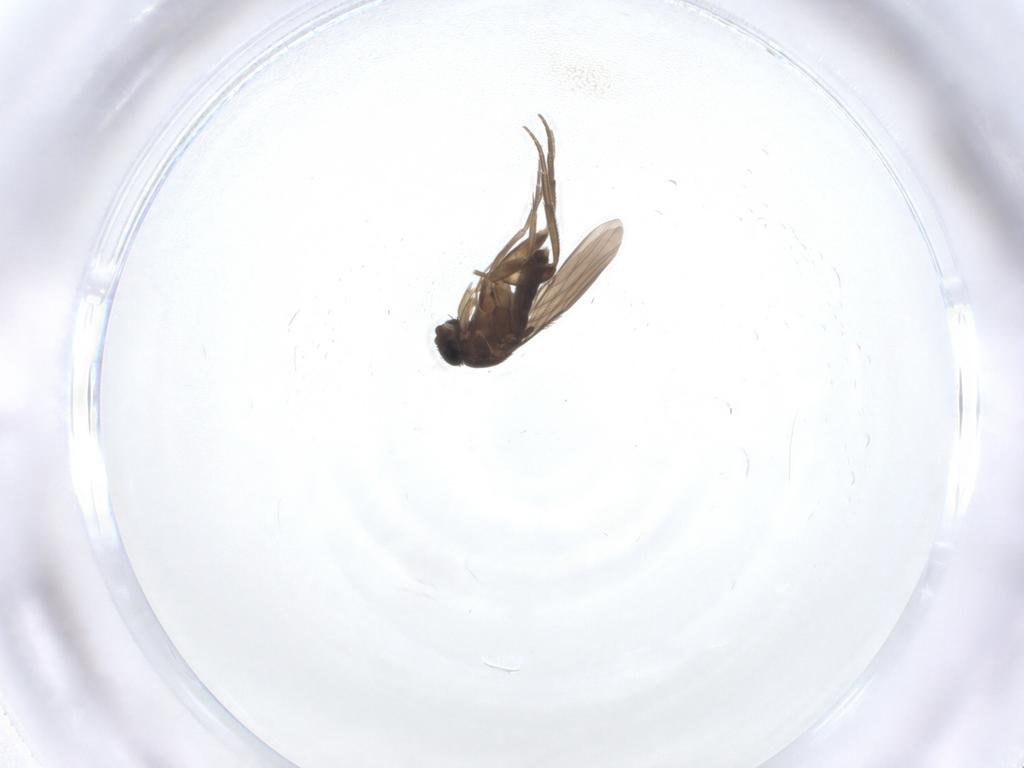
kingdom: Animalia
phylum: Arthropoda
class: Insecta
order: Diptera
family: Phoridae
